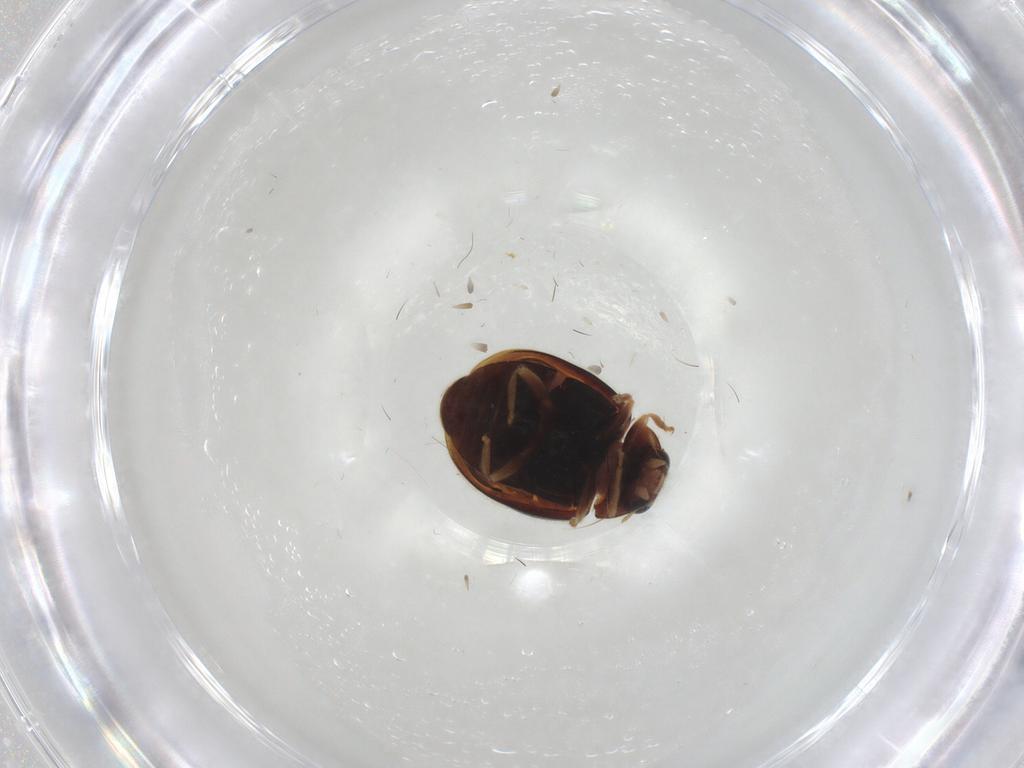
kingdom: Animalia
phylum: Arthropoda
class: Insecta
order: Coleoptera
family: Coccinellidae
